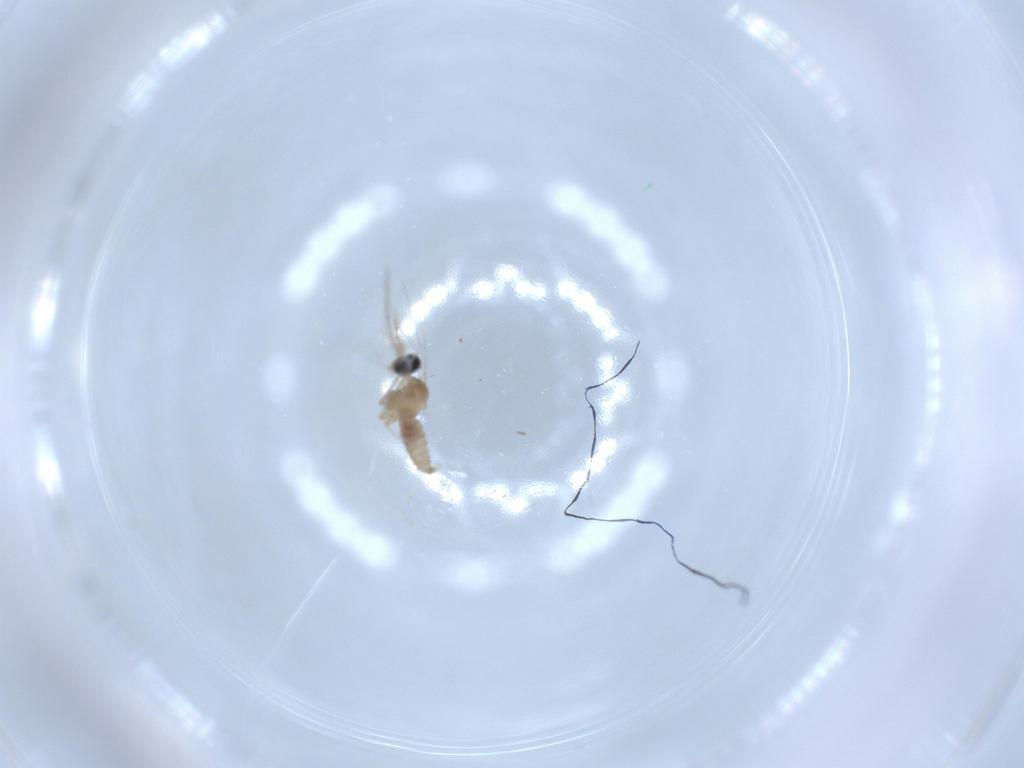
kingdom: Animalia
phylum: Arthropoda
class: Insecta
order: Diptera
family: Cecidomyiidae
